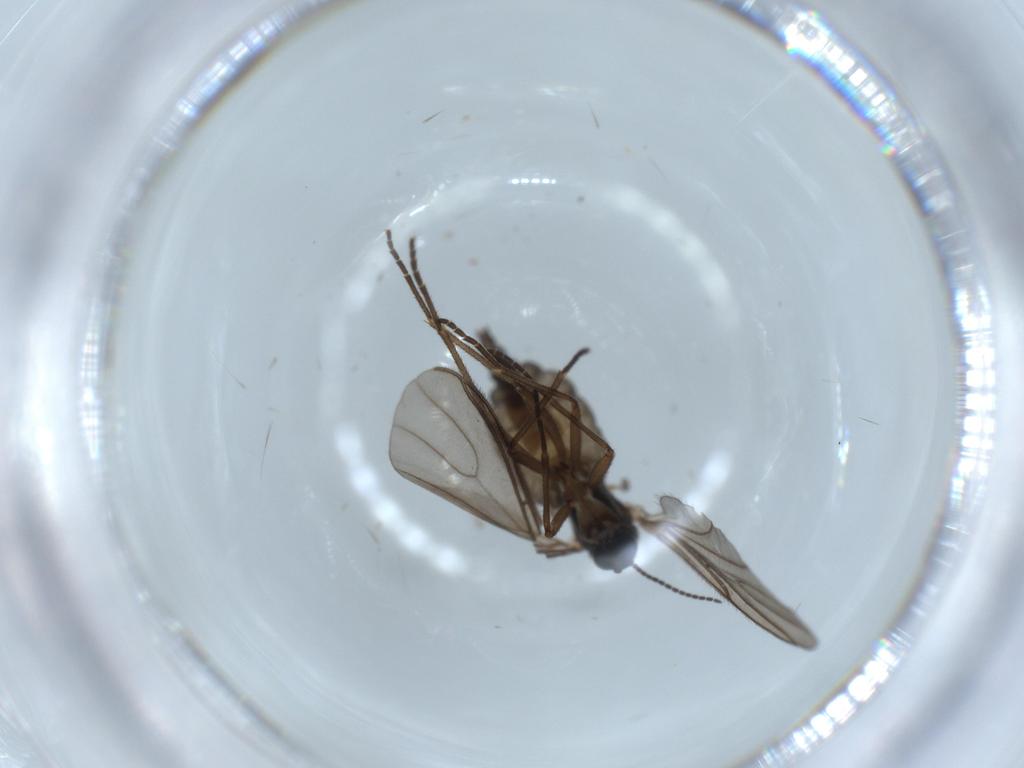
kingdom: Animalia
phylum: Arthropoda
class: Insecta
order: Diptera
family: Sciaridae
